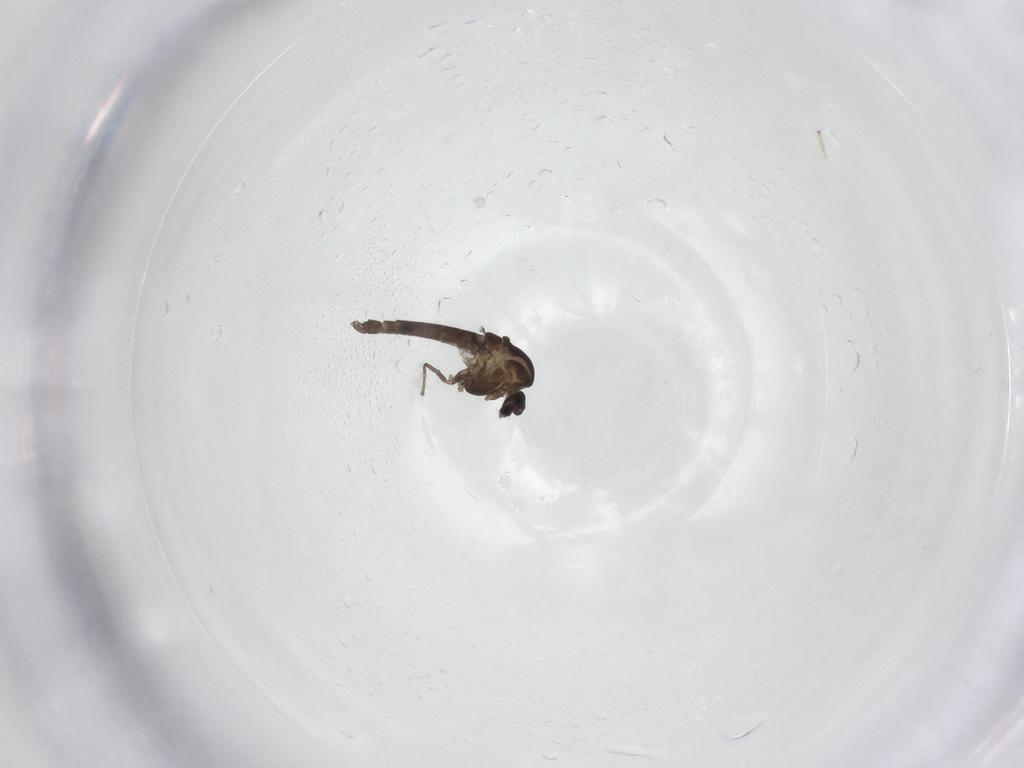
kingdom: Animalia
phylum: Arthropoda
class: Insecta
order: Diptera
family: Chironomidae
